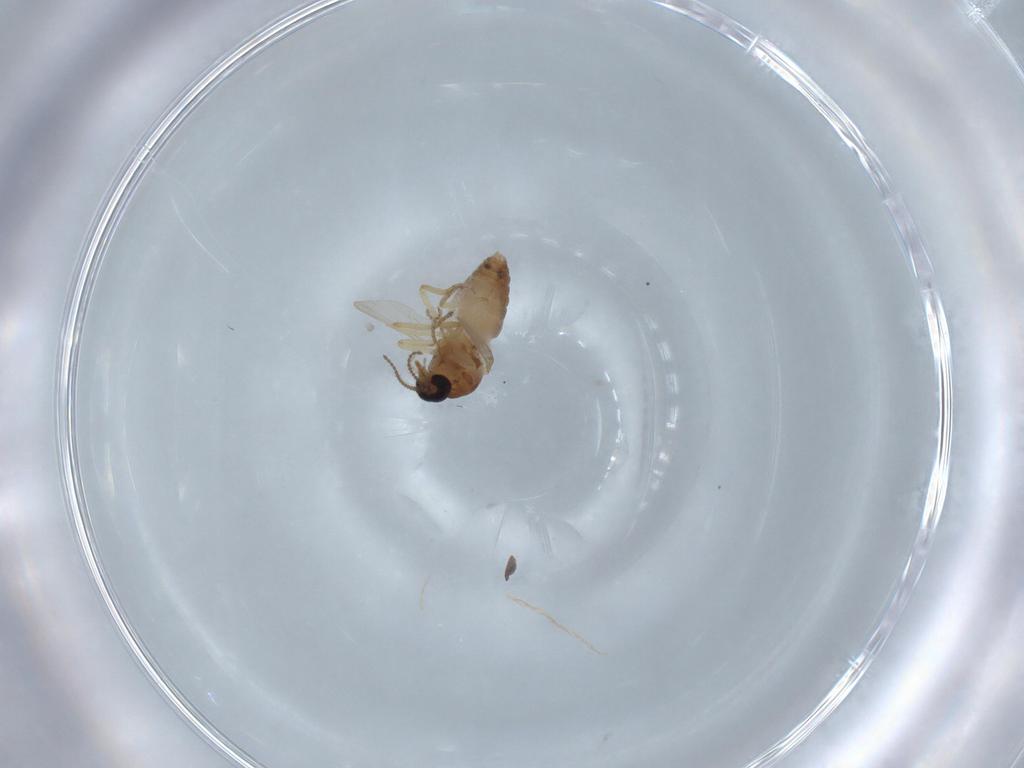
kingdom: Animalia
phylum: Arthropoda
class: Insecta
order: Diptera
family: Ceratopogonidae
